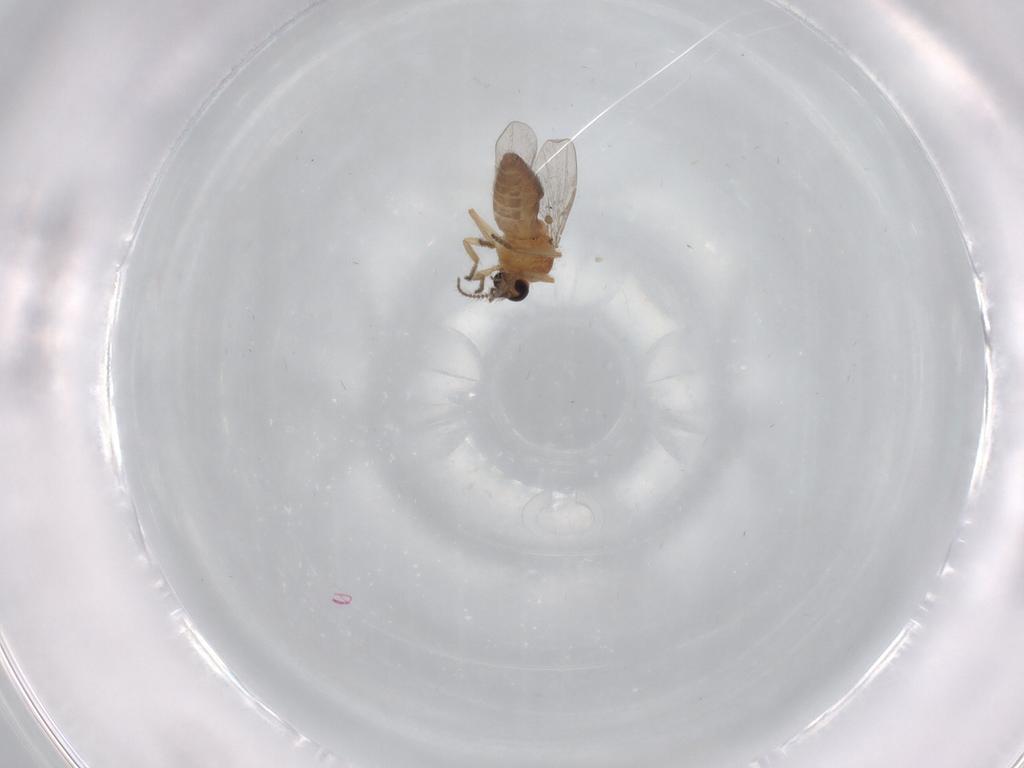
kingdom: Animalia
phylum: Arthropoda
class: Insecta
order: Diptera
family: Ceratopogonidae
